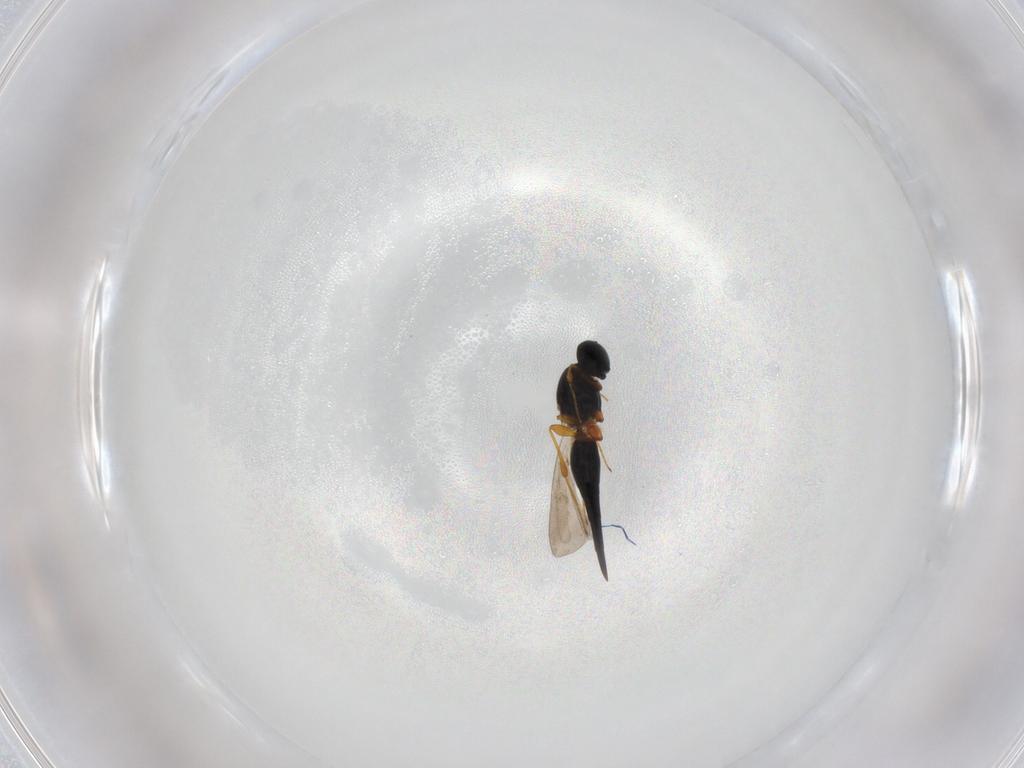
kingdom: Animalia
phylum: Arthropoda
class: Insecta
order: Hymenoptera
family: Platygastridae
